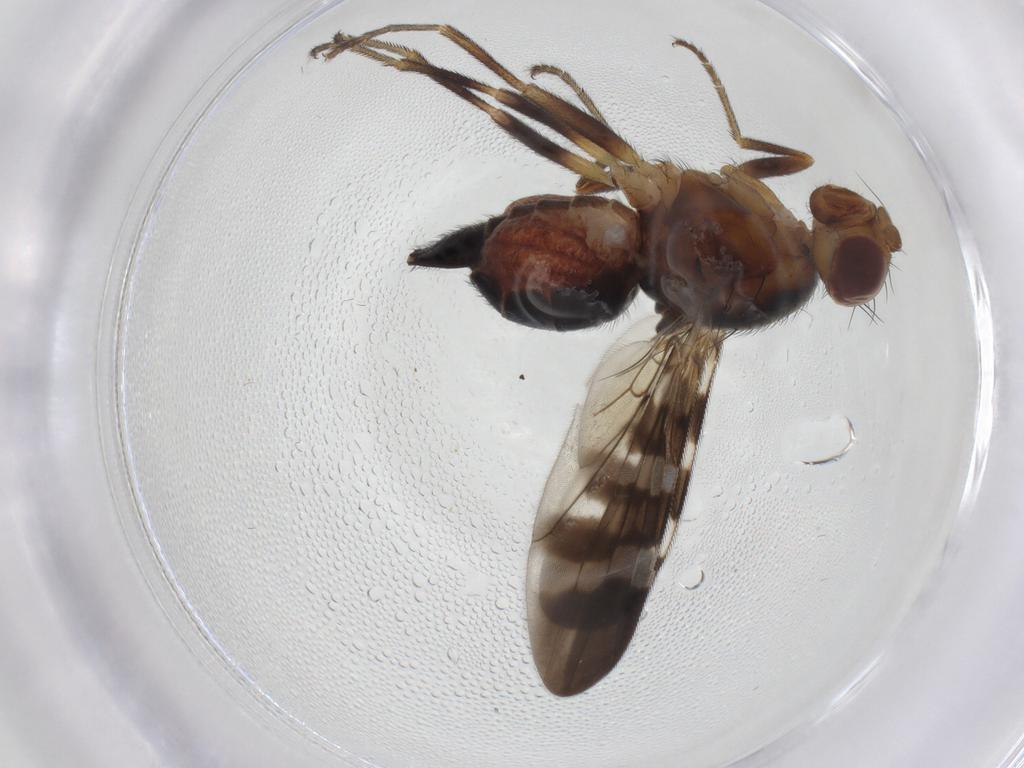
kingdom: Animalia
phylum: Arthropoda
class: Insecta
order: Diptera
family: Tephritidae
